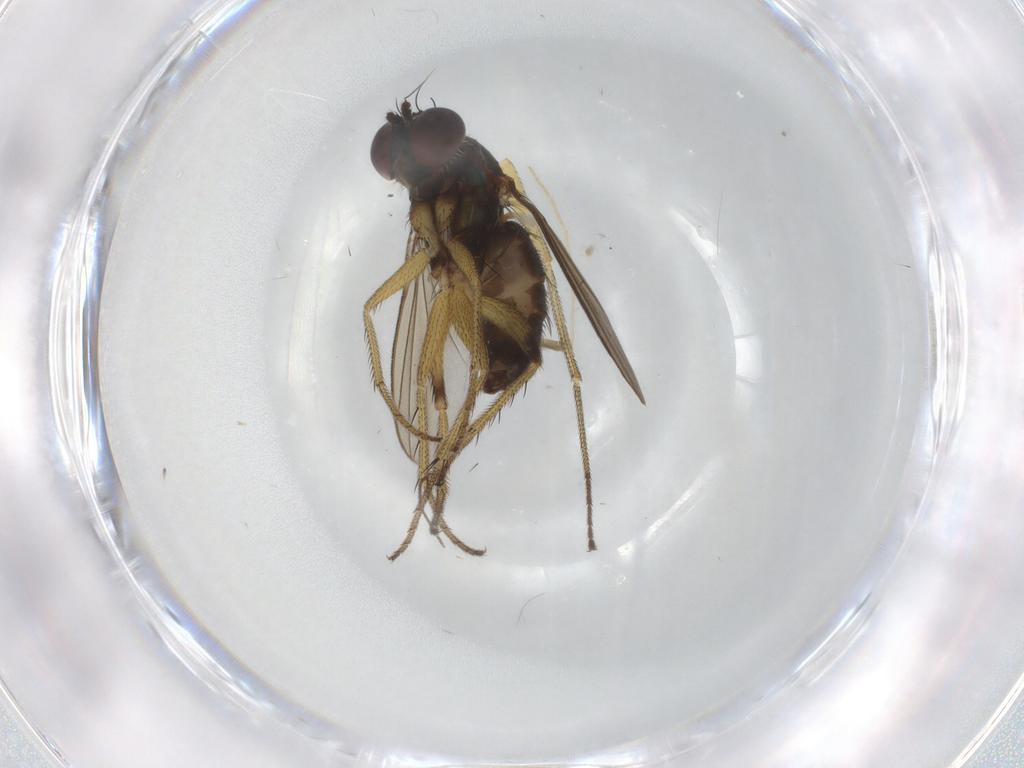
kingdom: Animalia
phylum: Arthropoda
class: Insecta
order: Diptera
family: Dolichopodidae
